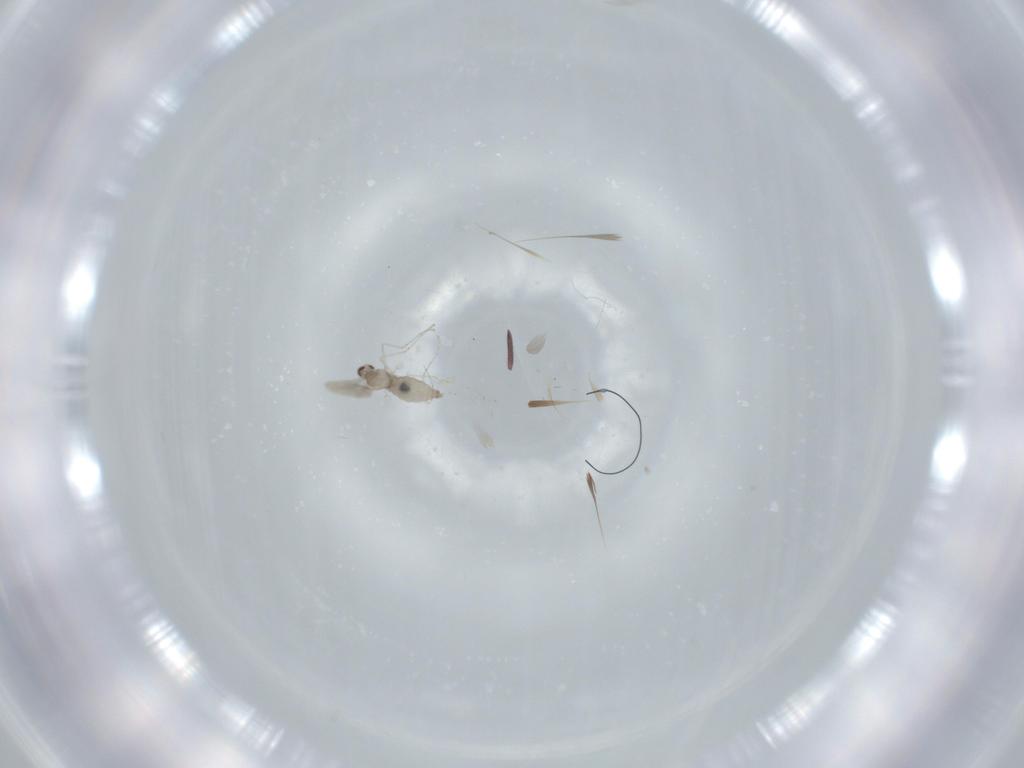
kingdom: Animalia
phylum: Arthropoda
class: Insecta
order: Diptera
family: Cecidomyiidae
